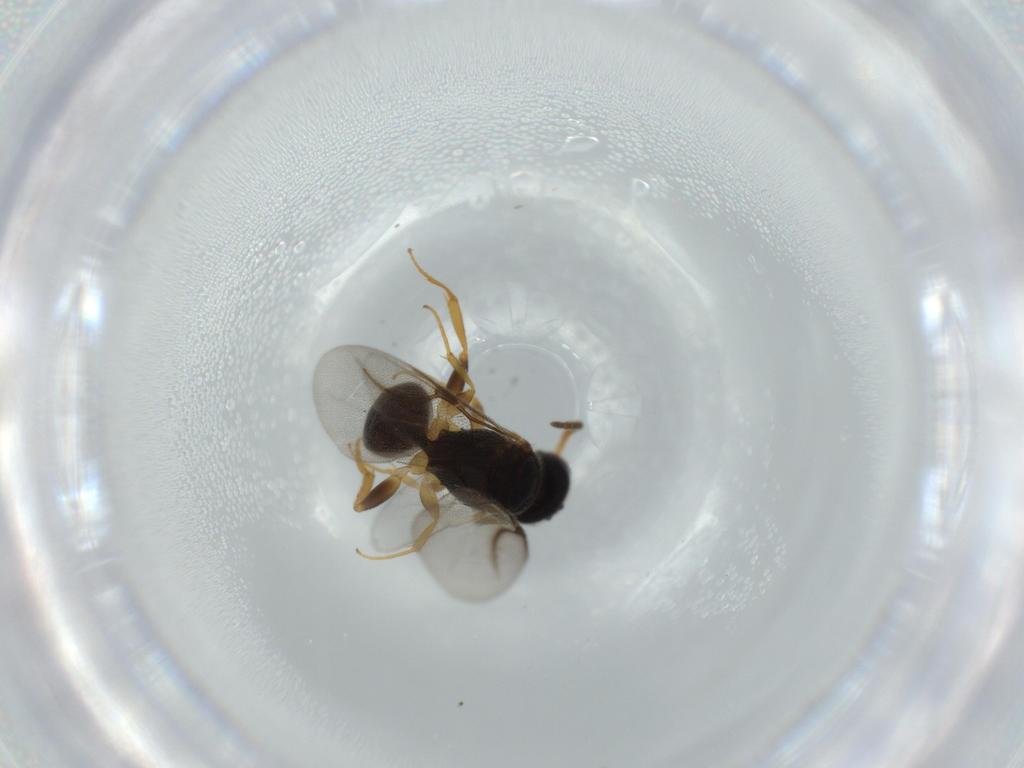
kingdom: Animalia
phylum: Arthropoda
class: Insecta
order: Hymenoptera
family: Bethylidae
